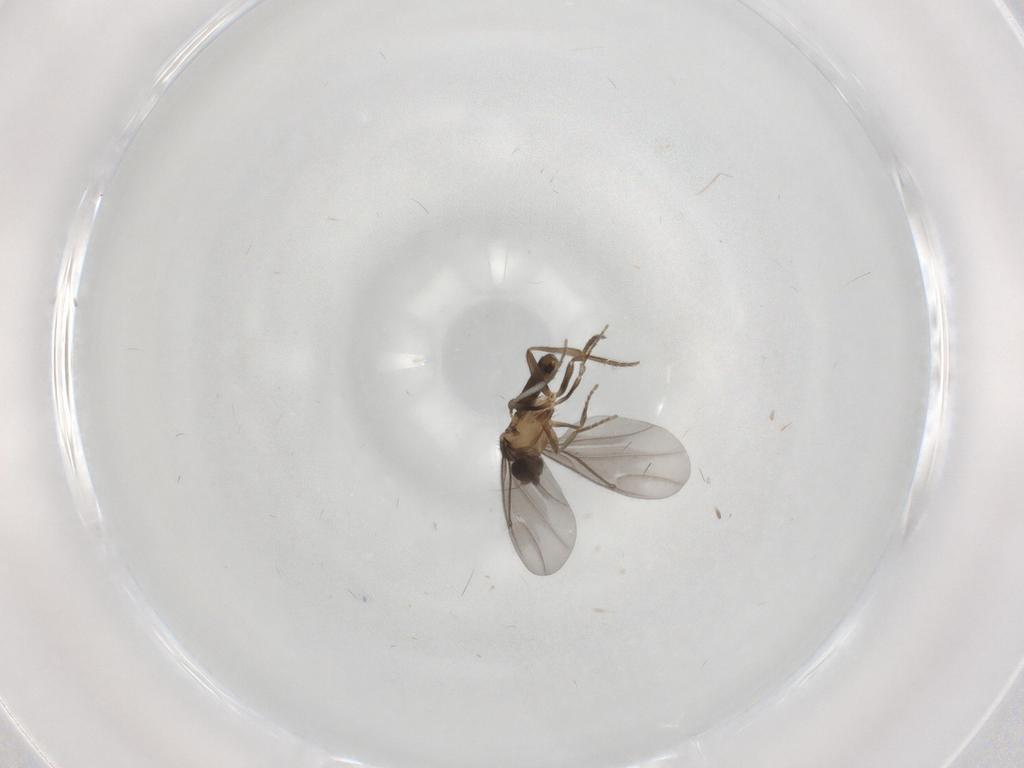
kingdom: Animalia
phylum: Arthropoda
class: Insecta
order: Diptera
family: Phoridae
